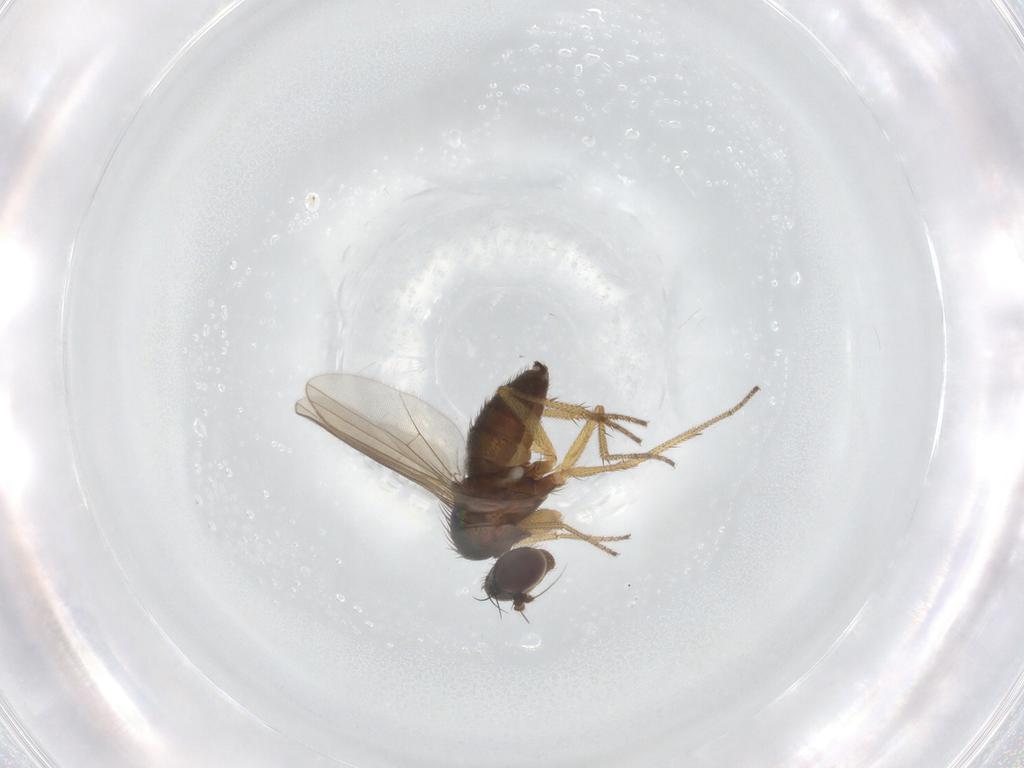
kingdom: Animalia
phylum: Arthropoda
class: Insecta
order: Diptera
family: Dolichopodidae
